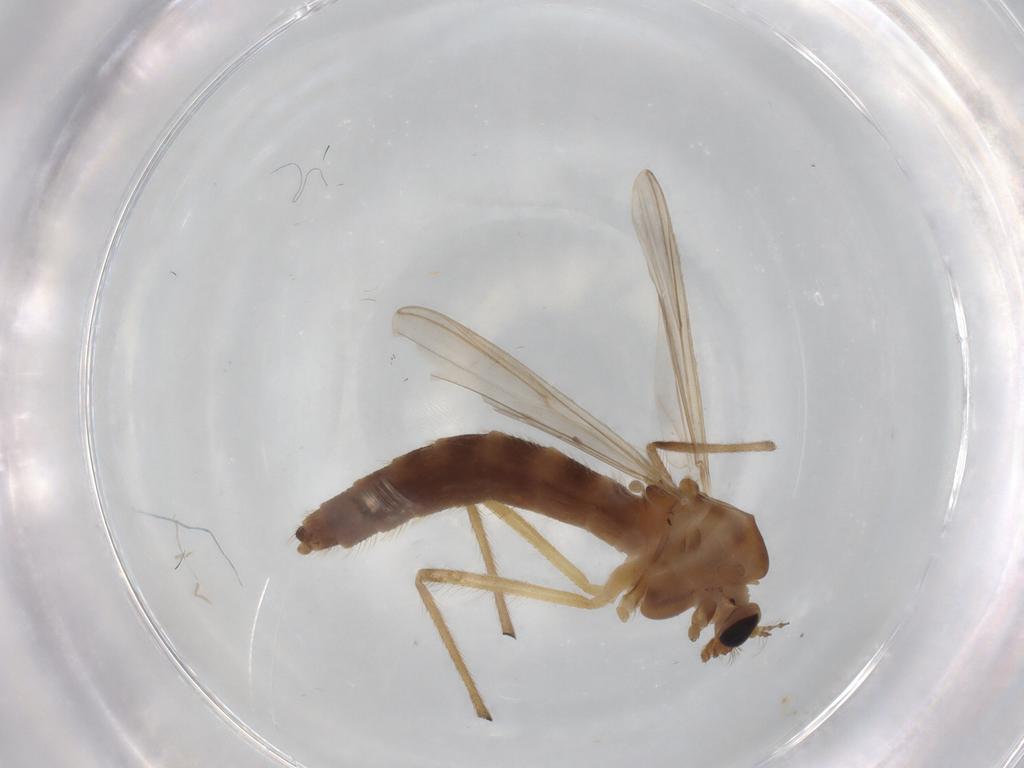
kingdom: Animalia
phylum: Arthropoda
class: Insecta
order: Diptera
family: Chironomidae
